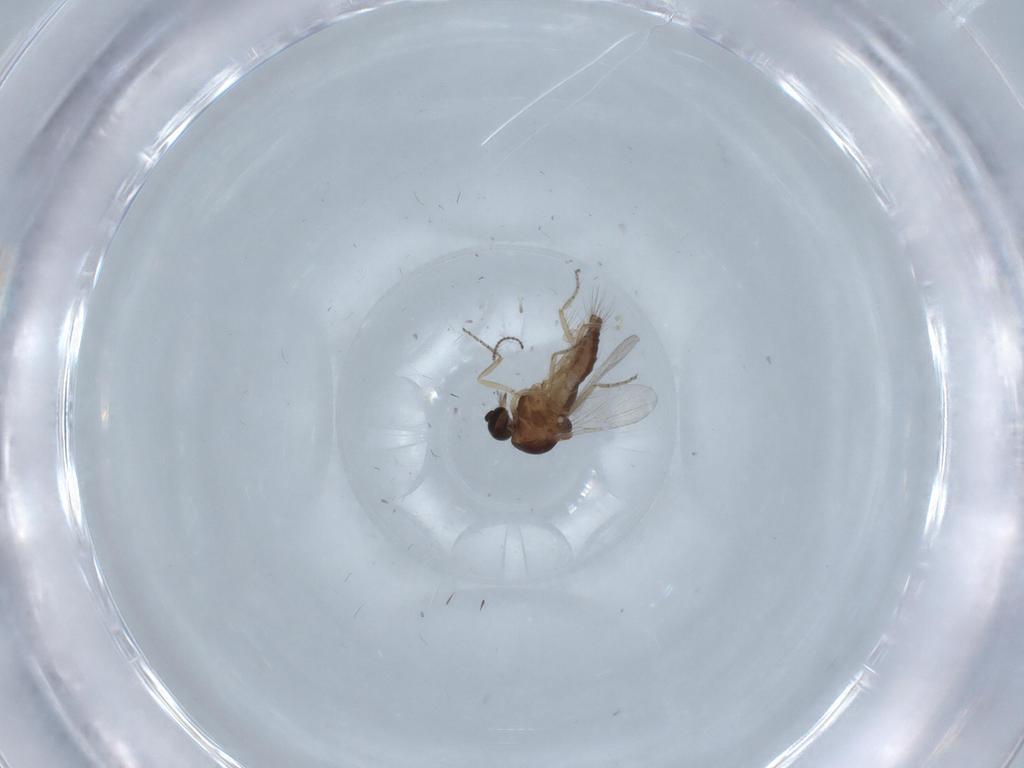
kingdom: Animalia
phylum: Arthropoda
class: Insecta
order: Diptera
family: Ceratopogonidae
